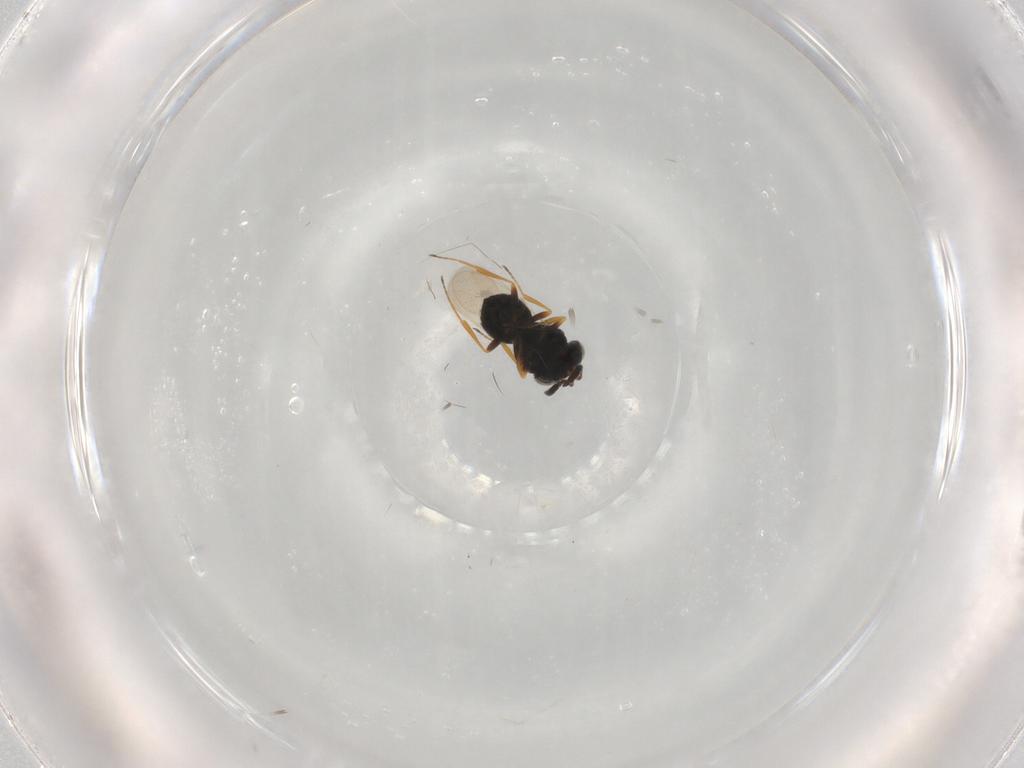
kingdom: Animalia
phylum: Arthropoda
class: Insecta
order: Hymenoptera
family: Scelionidae
